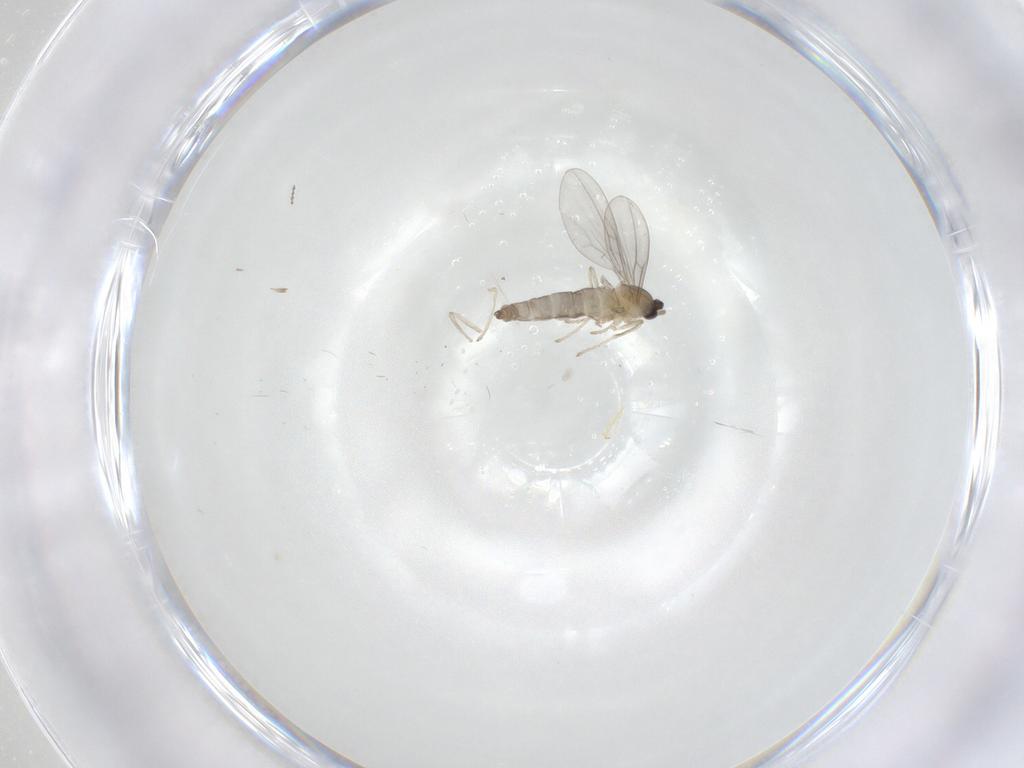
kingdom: Animalia
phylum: Arthropoda
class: Insecta
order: Diptera
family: Cecidomyiidae
